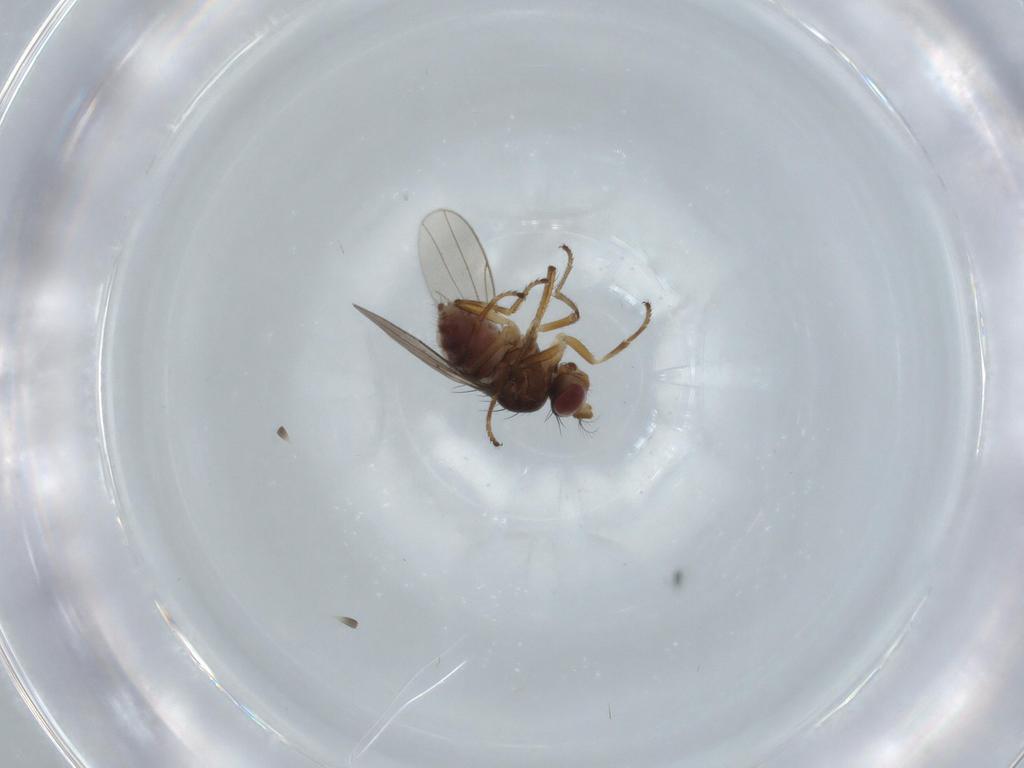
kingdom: Animalia
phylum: Arthropoda
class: Insecta
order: Diptera
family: Ephydridae
